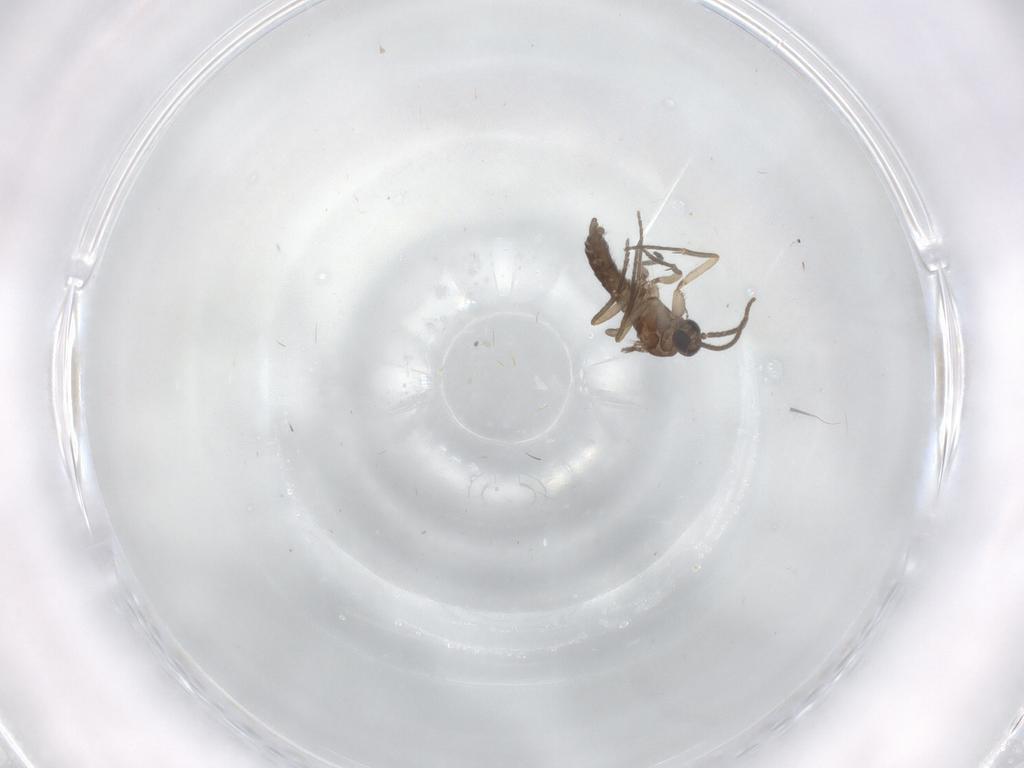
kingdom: Animalia
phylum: Arthropoda
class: Insecta
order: Diptera
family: Sciaridae
